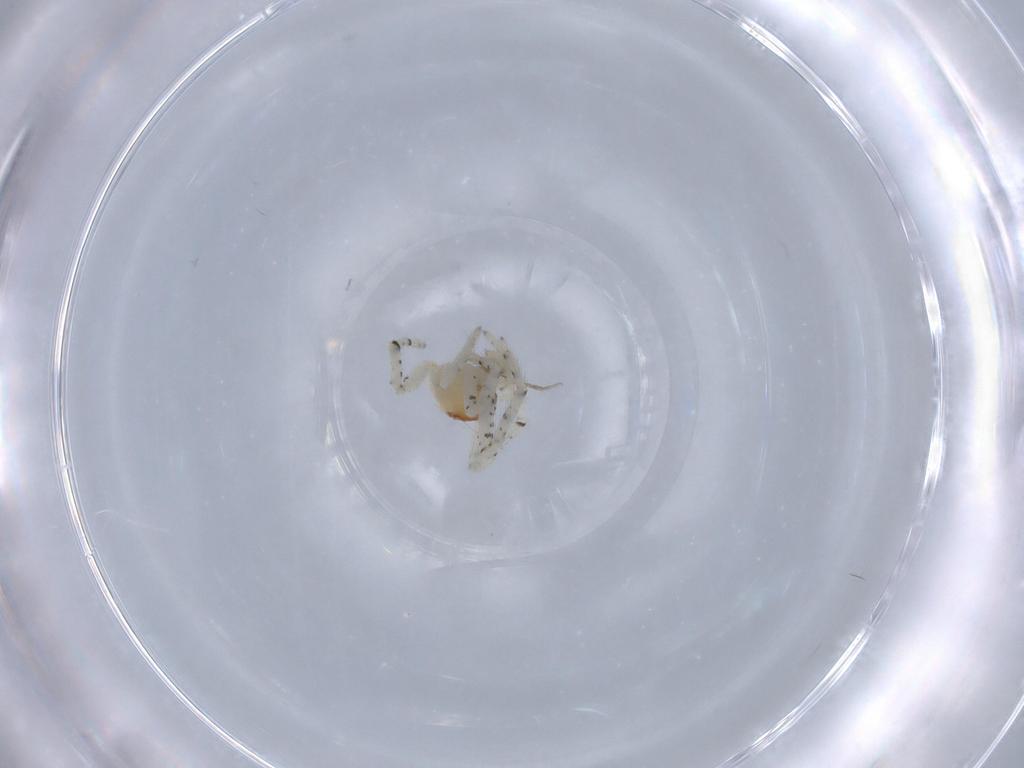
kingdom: Animalia
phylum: Arthropoda
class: Arachnida
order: Araneae
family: Theridiidae
